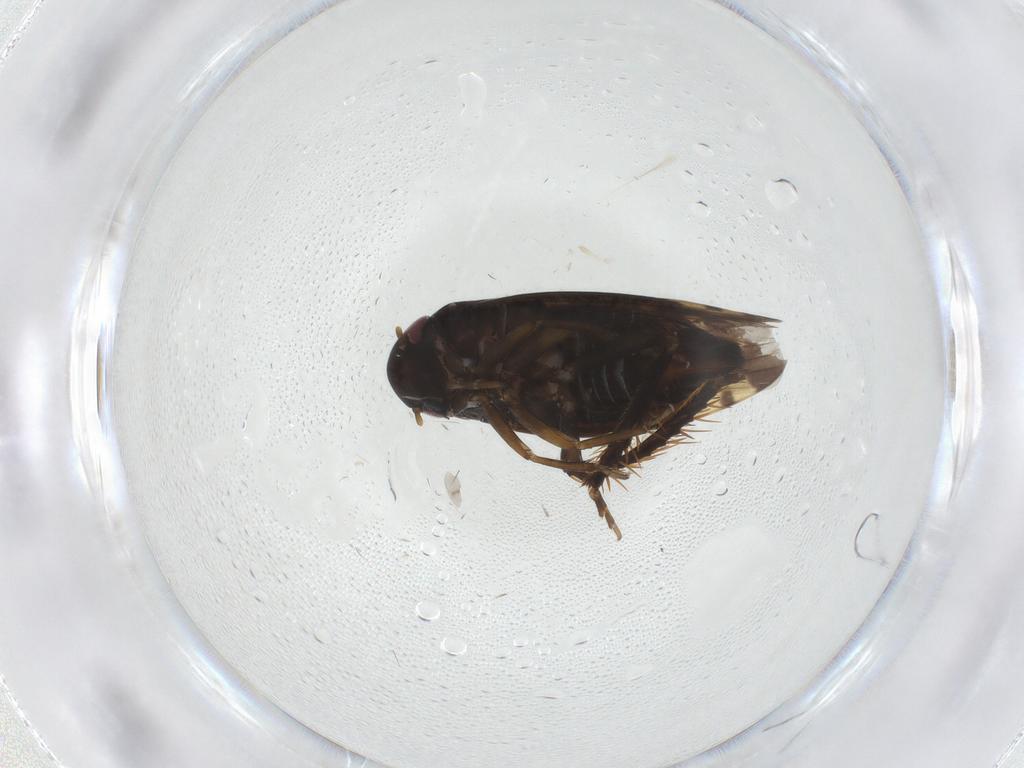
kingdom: Animalia
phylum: Arthropoda
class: Insecta
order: Hemiptera
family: Cicadellidae
